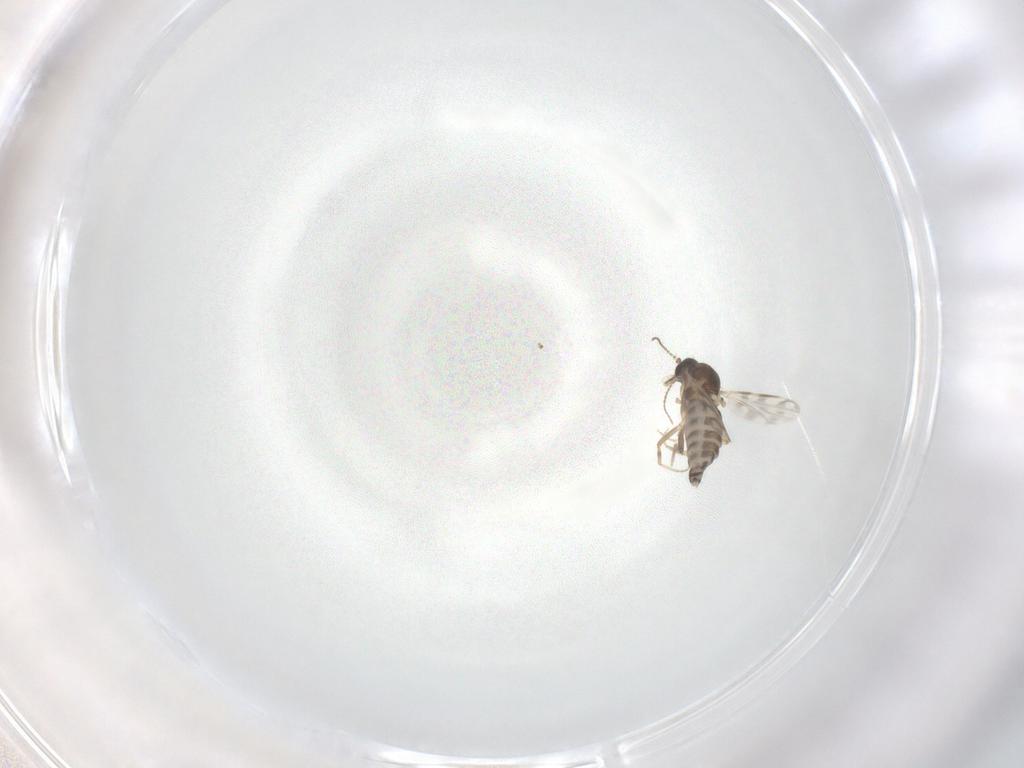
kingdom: Animalia
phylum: Arthropoda
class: Insecta
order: Diptera
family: Ceratopogonidae
